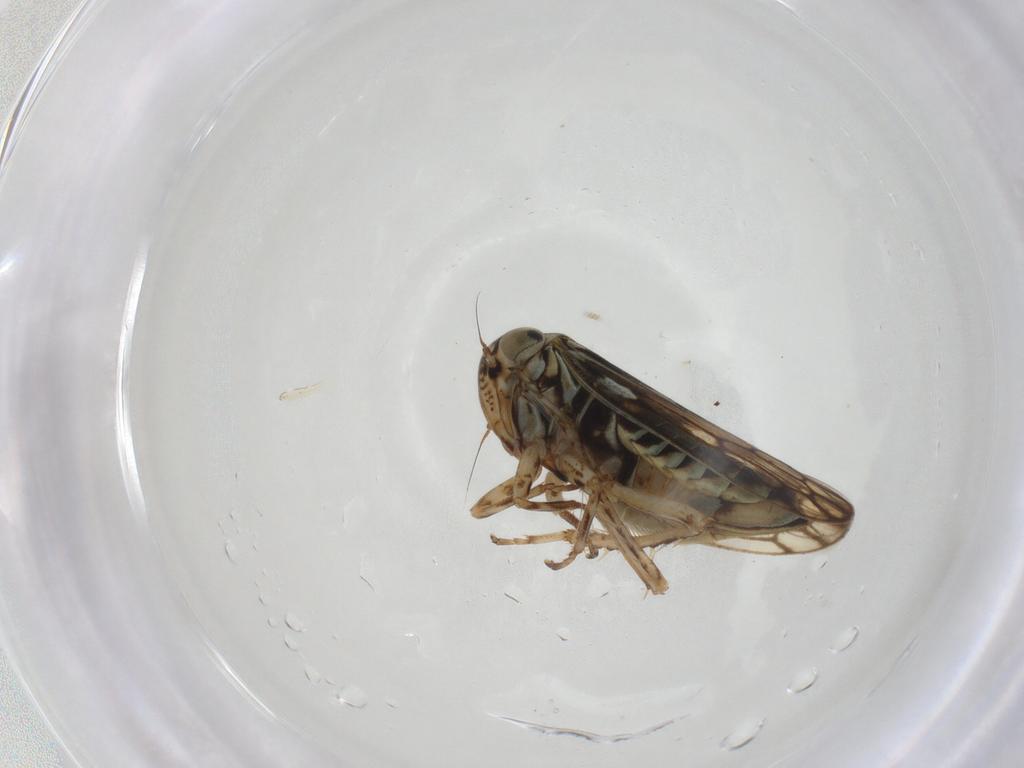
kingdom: Animalia
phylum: Arthropoda
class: Insecta
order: Hemiptera
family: Cicadellidae
